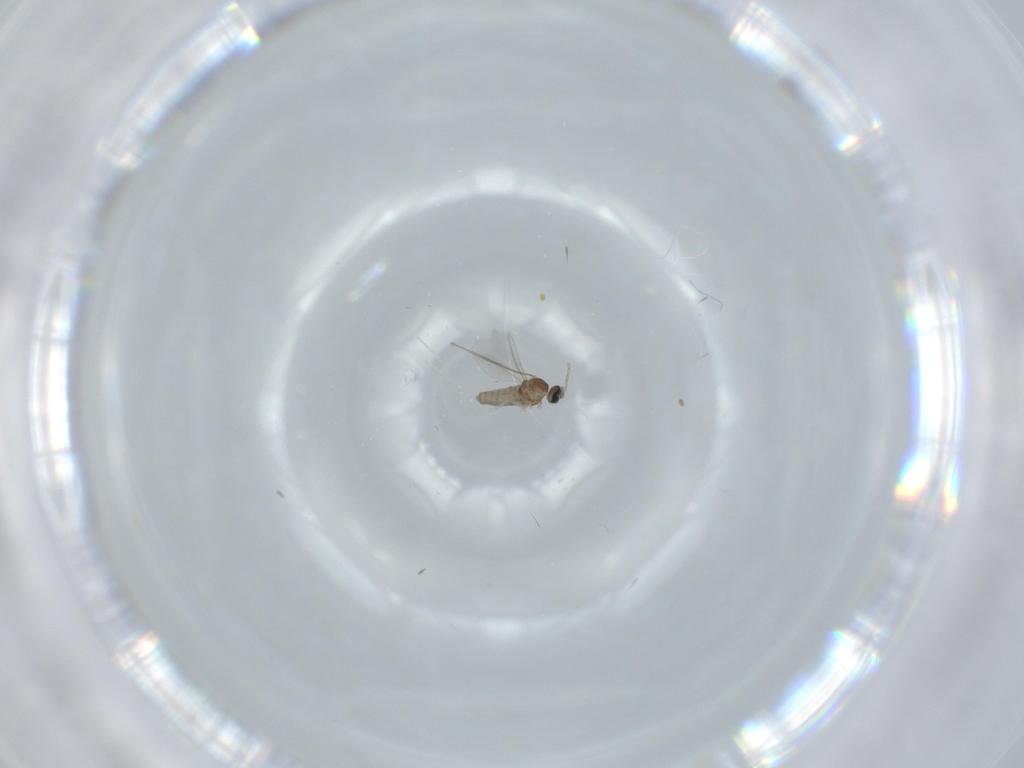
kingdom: Animalia
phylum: Arthropoda
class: Insecta
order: Diptera
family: Cecidomyiidae
